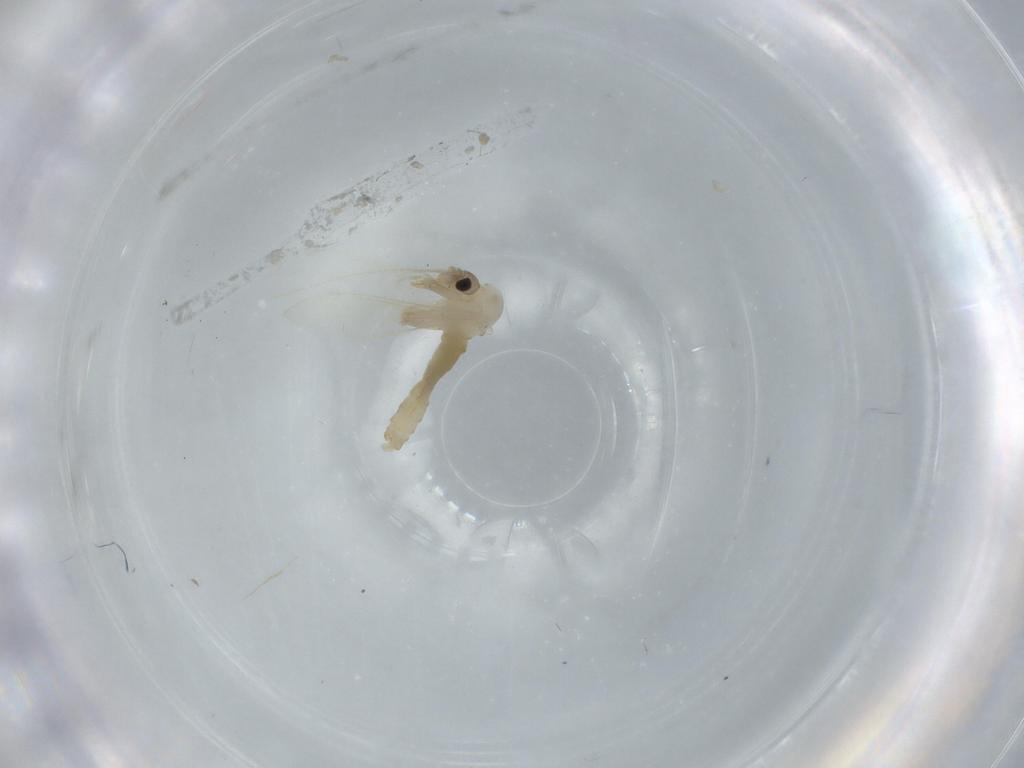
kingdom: Animalia
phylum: Arthropoda
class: Insecta
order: Diptera
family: Psychodidae
